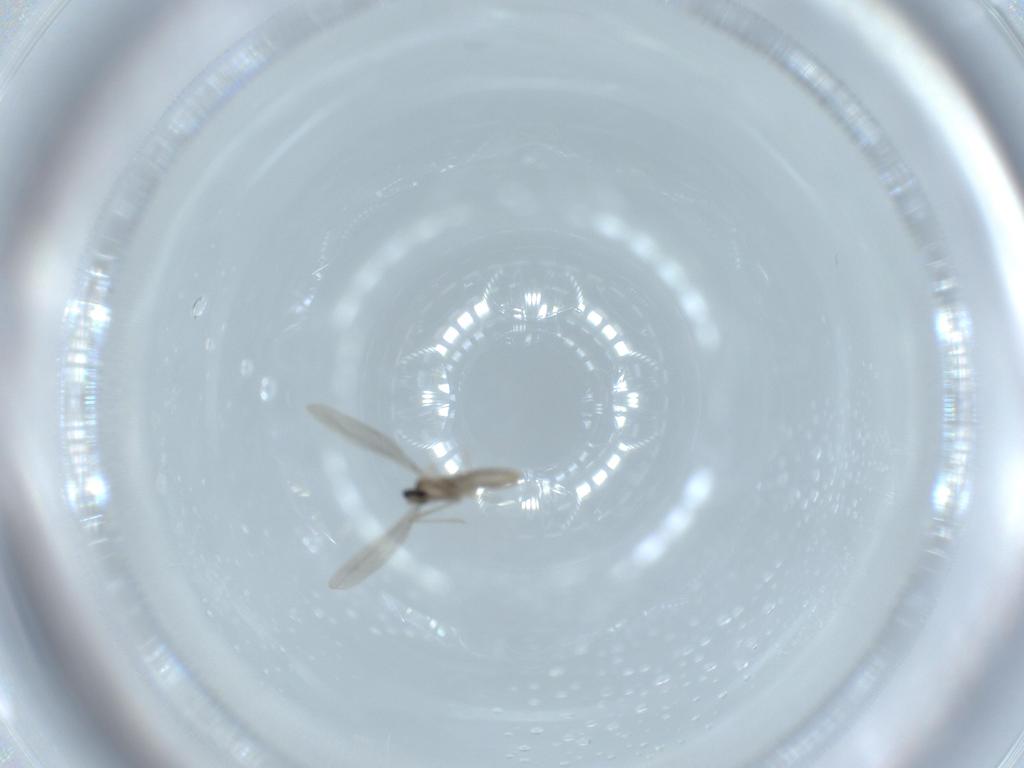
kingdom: Animalia
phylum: Arthropoda
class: Insecta
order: Diptera
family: Cecidomyiidae
